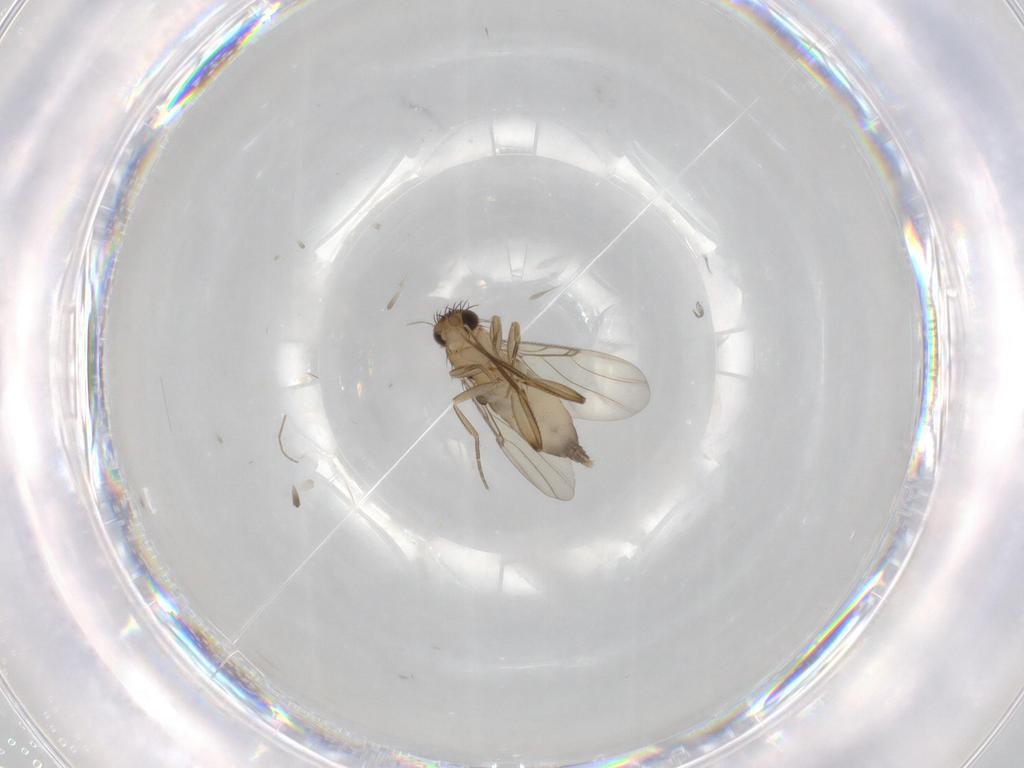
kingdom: Animalia
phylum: Arthropoda
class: Insecta
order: Diptera
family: Phoridae
